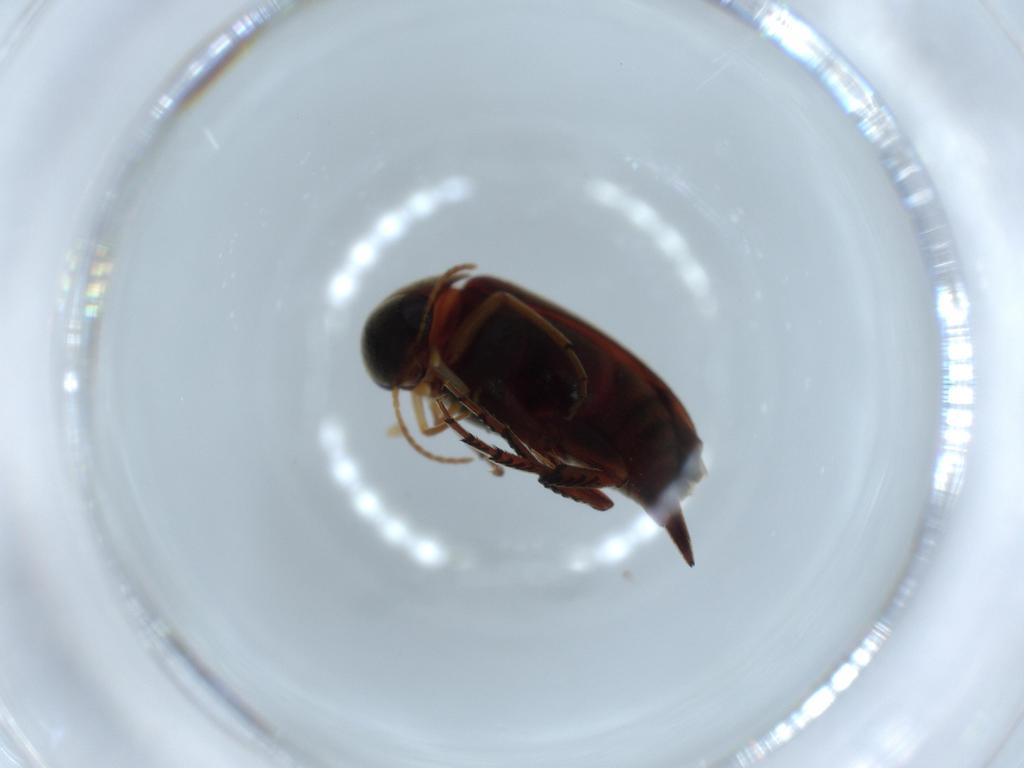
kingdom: Animalia
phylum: Arthropoda
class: Insecta
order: Coleoptera
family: Mordellidae
